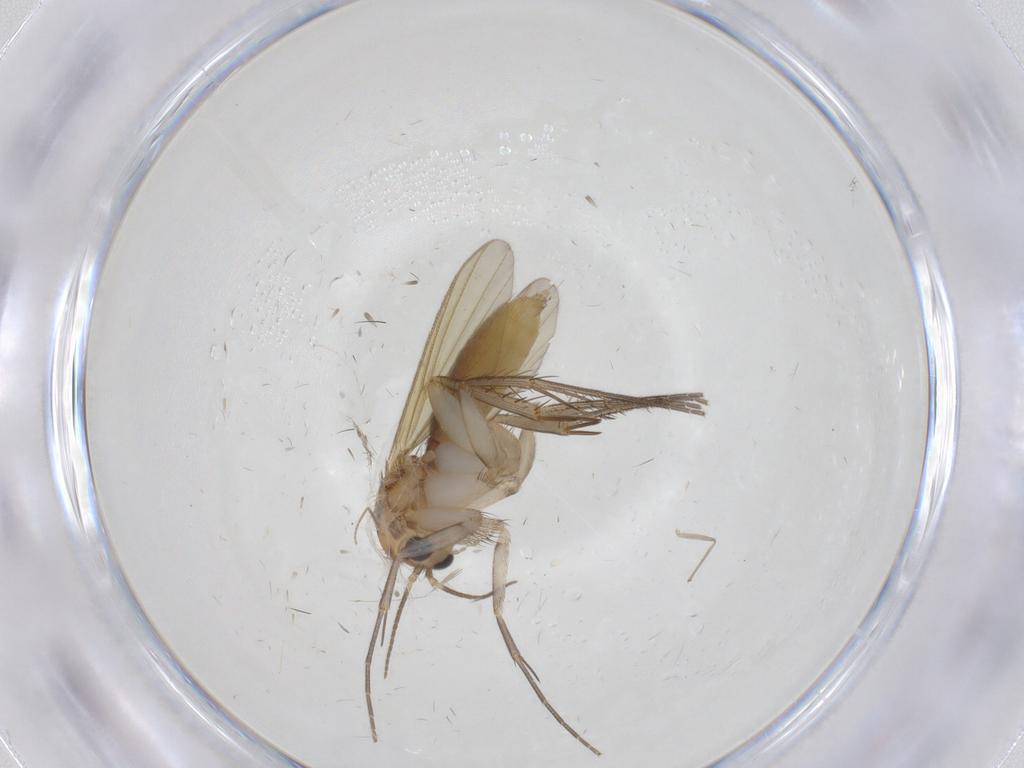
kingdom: Animalia
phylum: Arthropoda
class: Insecta
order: Diptera
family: Mycetophilidae
